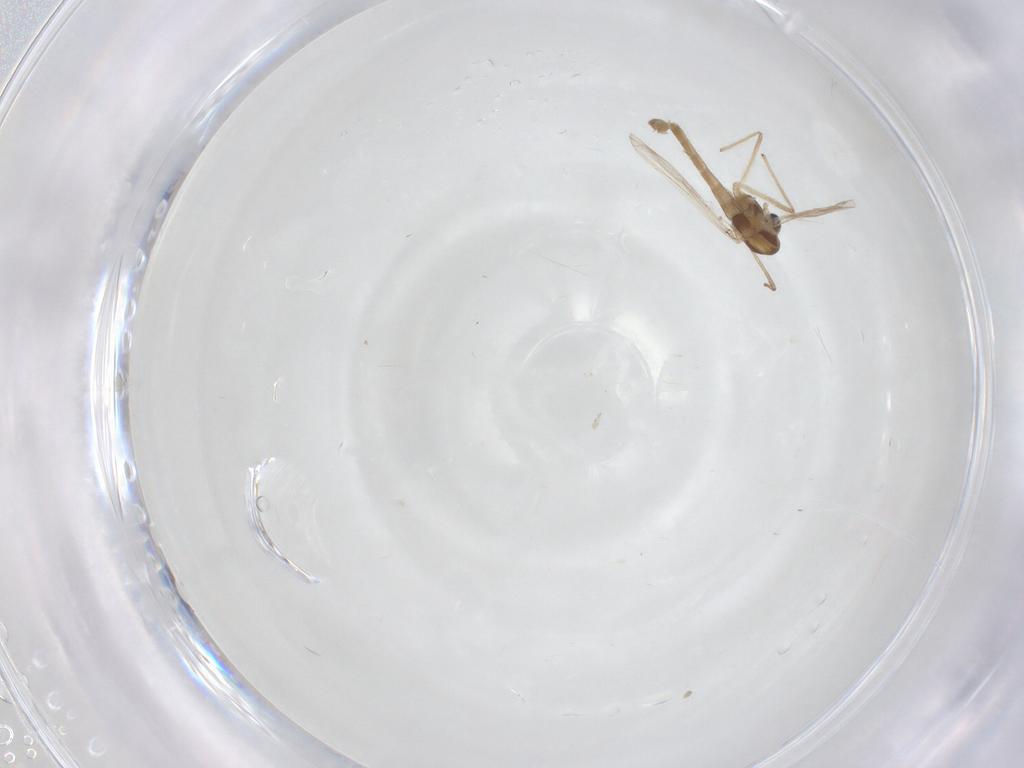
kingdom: Animalia
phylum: Arthropoda
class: Insecta
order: Diptera
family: Chironomidae
